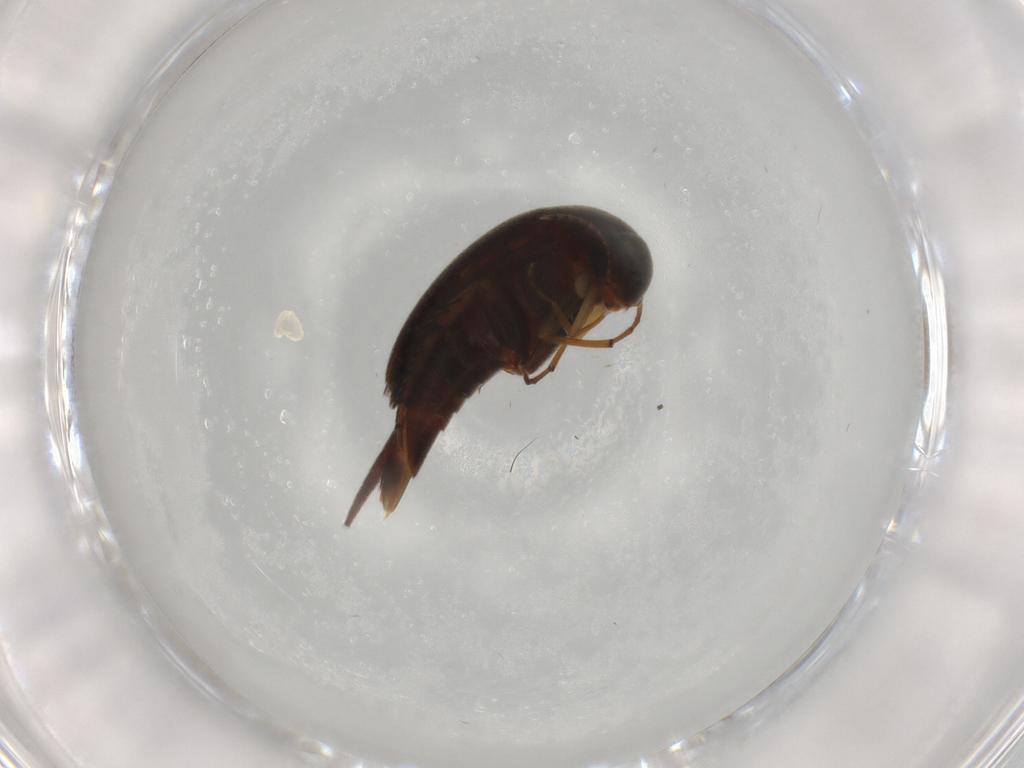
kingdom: Animalia
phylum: Arthropoda
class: Insecta
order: Coleoptera
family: Mordellidae
